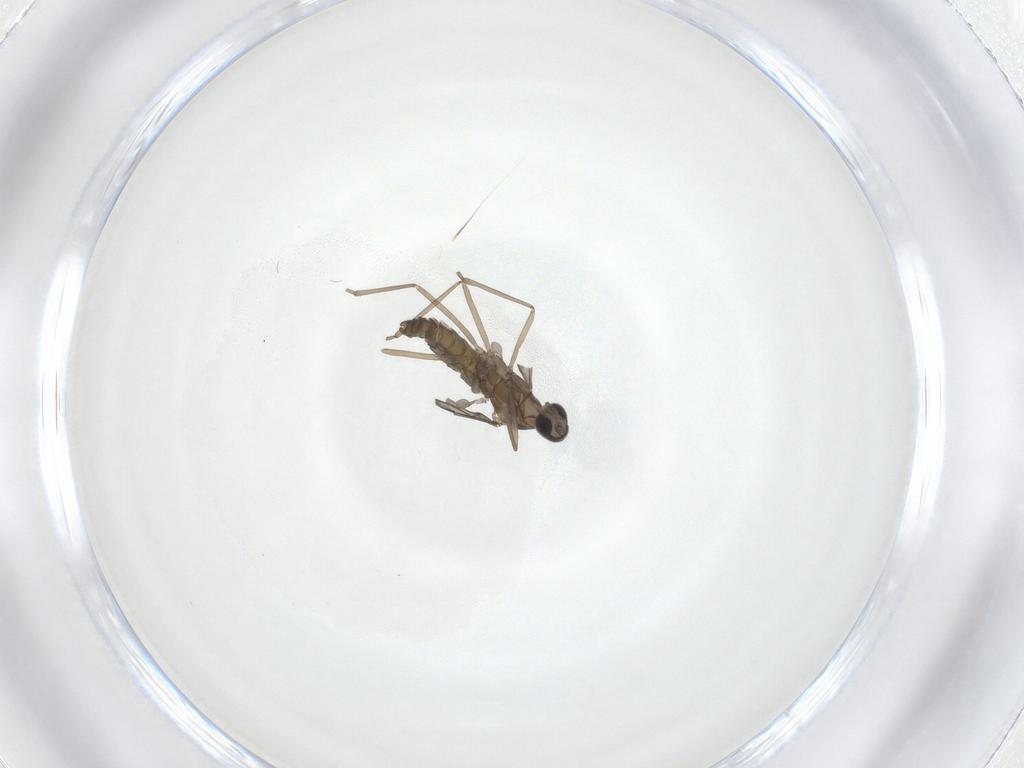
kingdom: Animalia
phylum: Arthropoda
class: Insecta
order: Diptera
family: Cecidomyiidae
